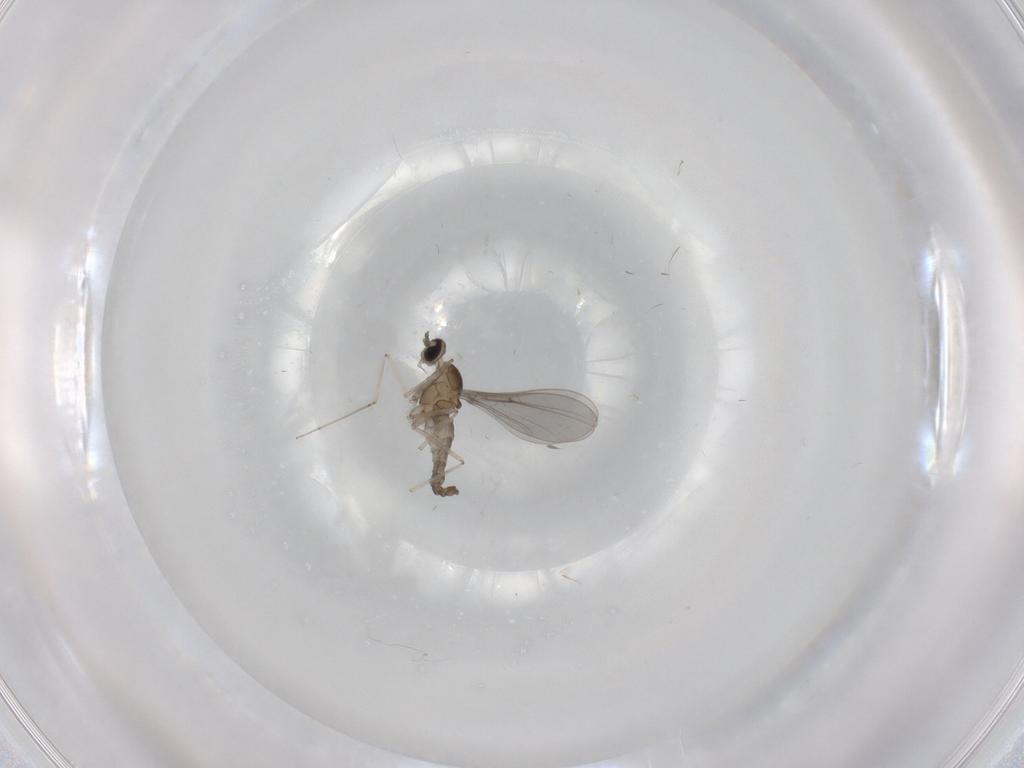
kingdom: Animalia
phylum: Arthropoda
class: Insecta
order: Diptera
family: Cecidomyiidae
